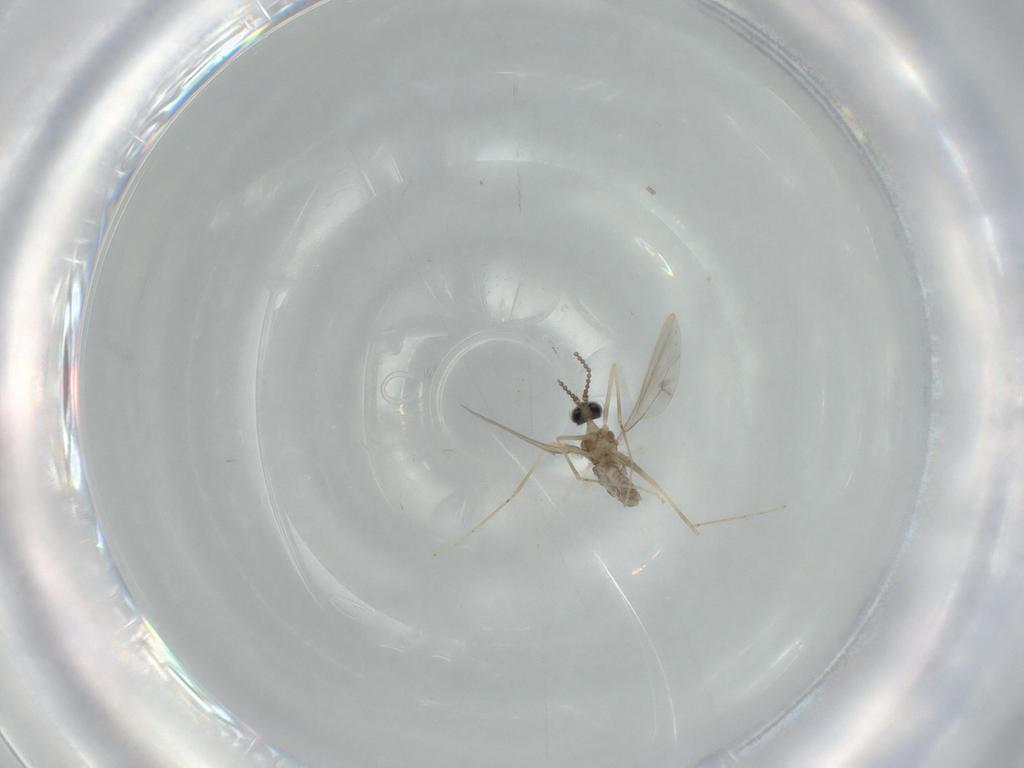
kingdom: Animalia
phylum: Arthropoda
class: Insecta
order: Diptera
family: Cecidomyiidae
